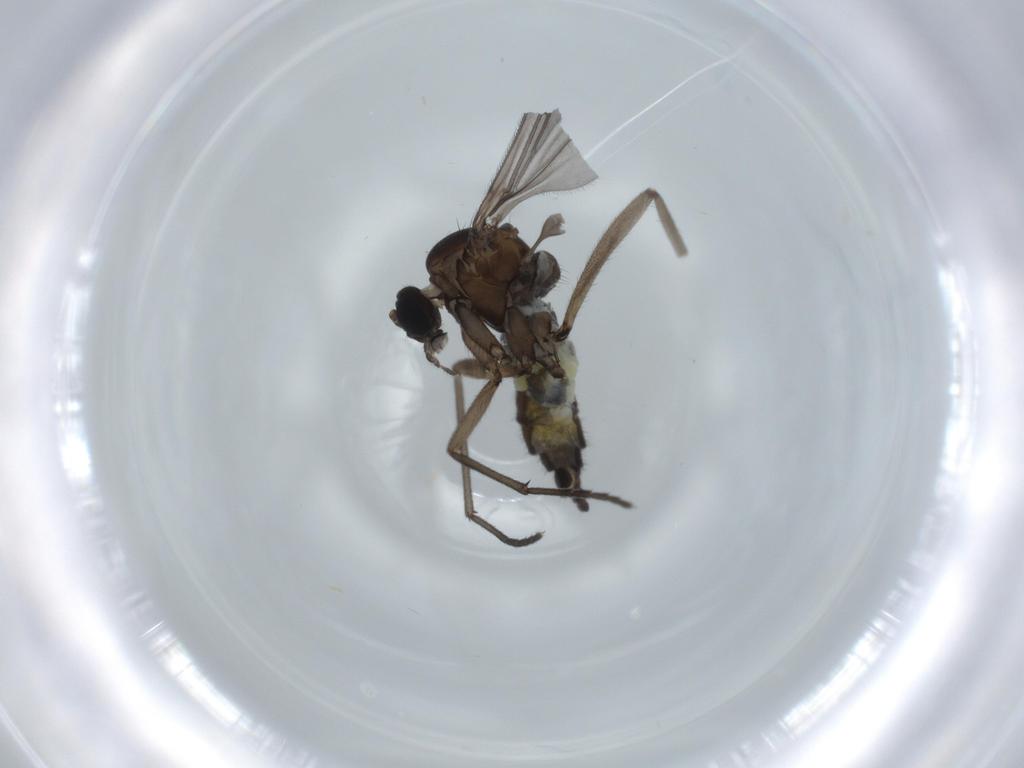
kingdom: Animalia
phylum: Arthropoda
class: Insecta
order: Diptera
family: Sciaridae
